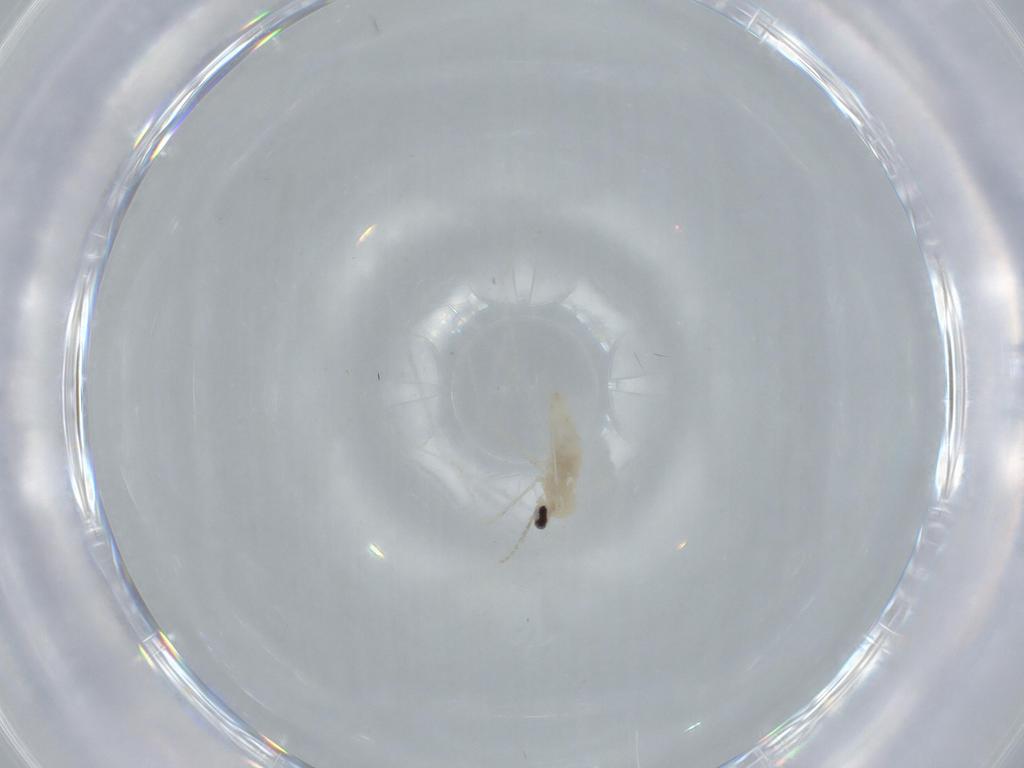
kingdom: Animalia
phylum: Arthropoda
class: Insecta
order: Diptera
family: Cecidomyiidae
